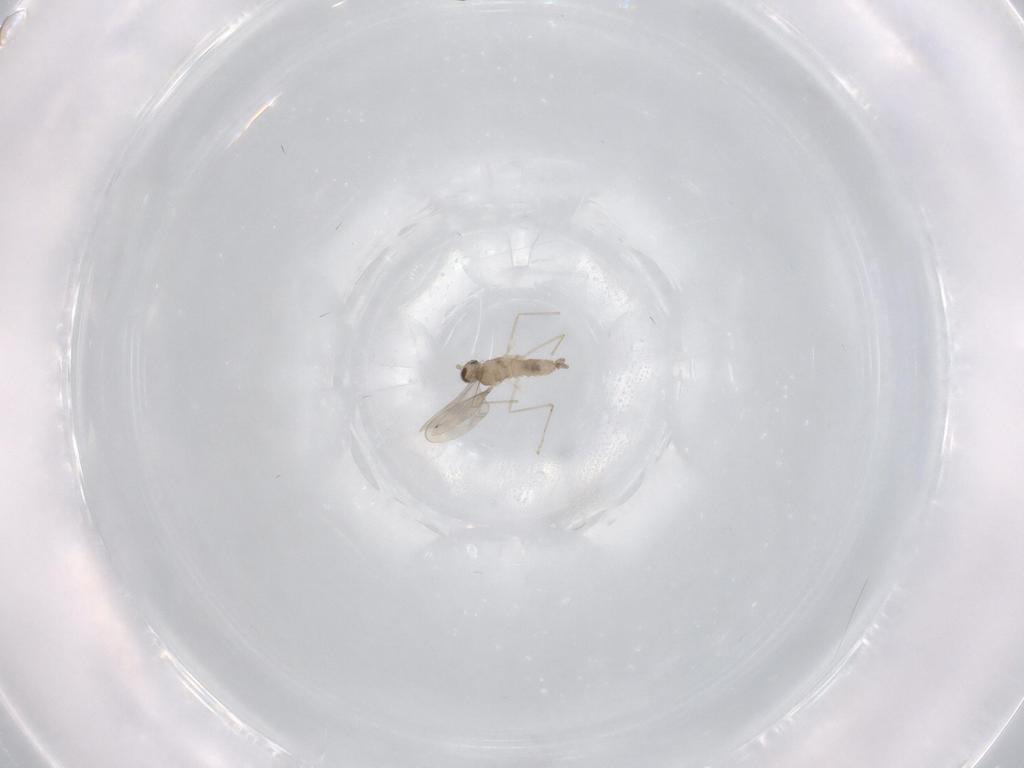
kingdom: Animalia
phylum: Arthropoda
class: Insecta
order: Diptera
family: Cecidomyiidae
